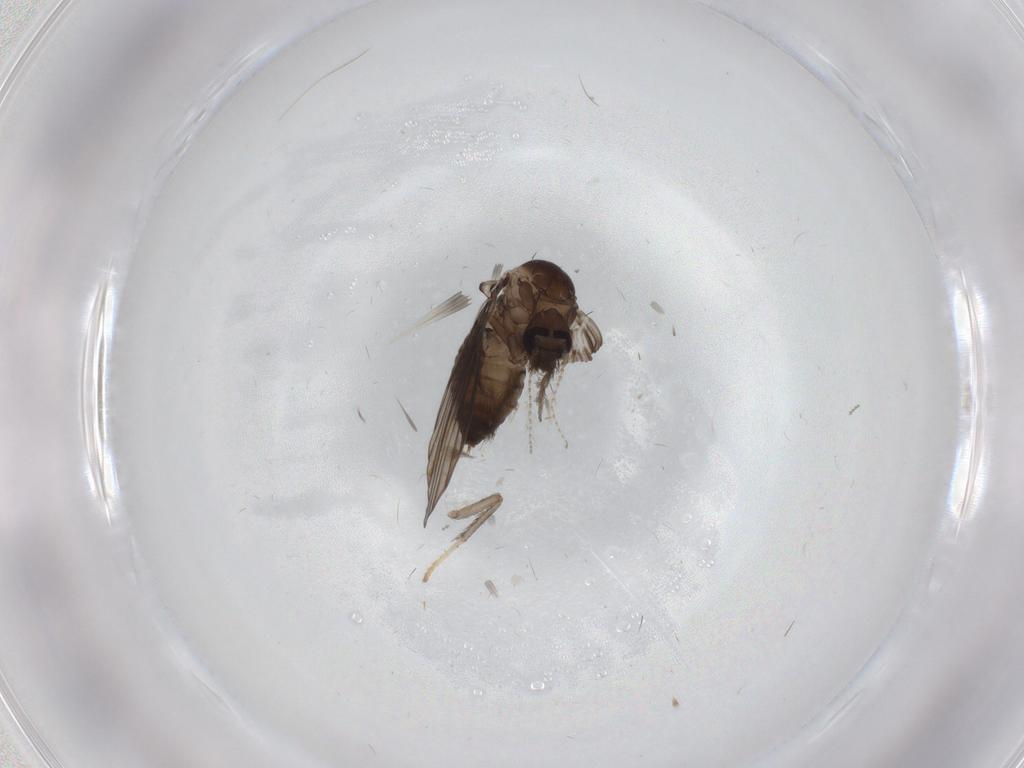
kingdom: Animalia
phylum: Arthropoda
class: Insecta
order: Diptera
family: Psychodidae
